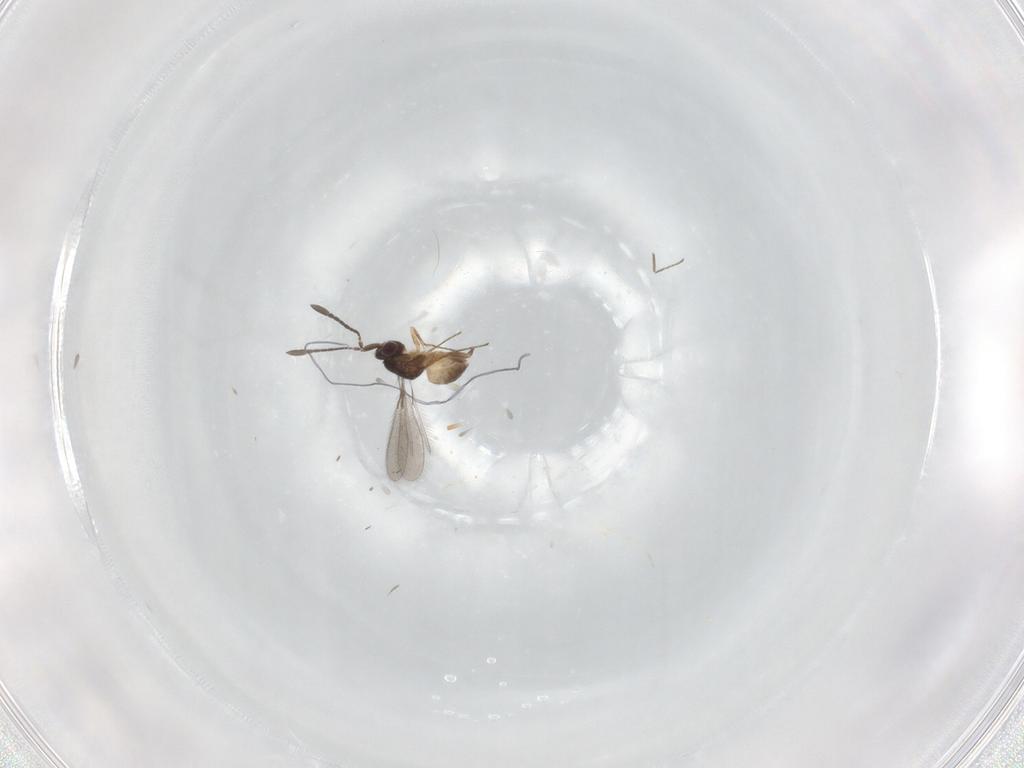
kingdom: Animalia
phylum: Arthropoda
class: Insecta
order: Hymenoptera
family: Mymaridae
